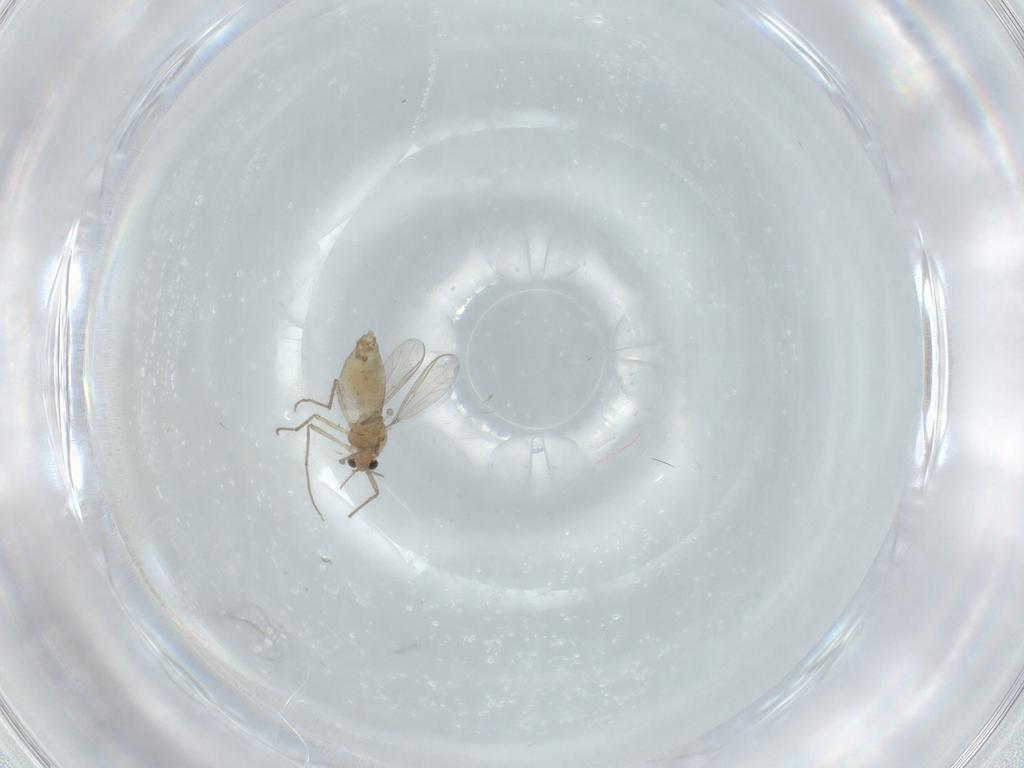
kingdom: Animalia
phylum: Arthropoda
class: Insecta
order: Diptera
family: Chironomidae
